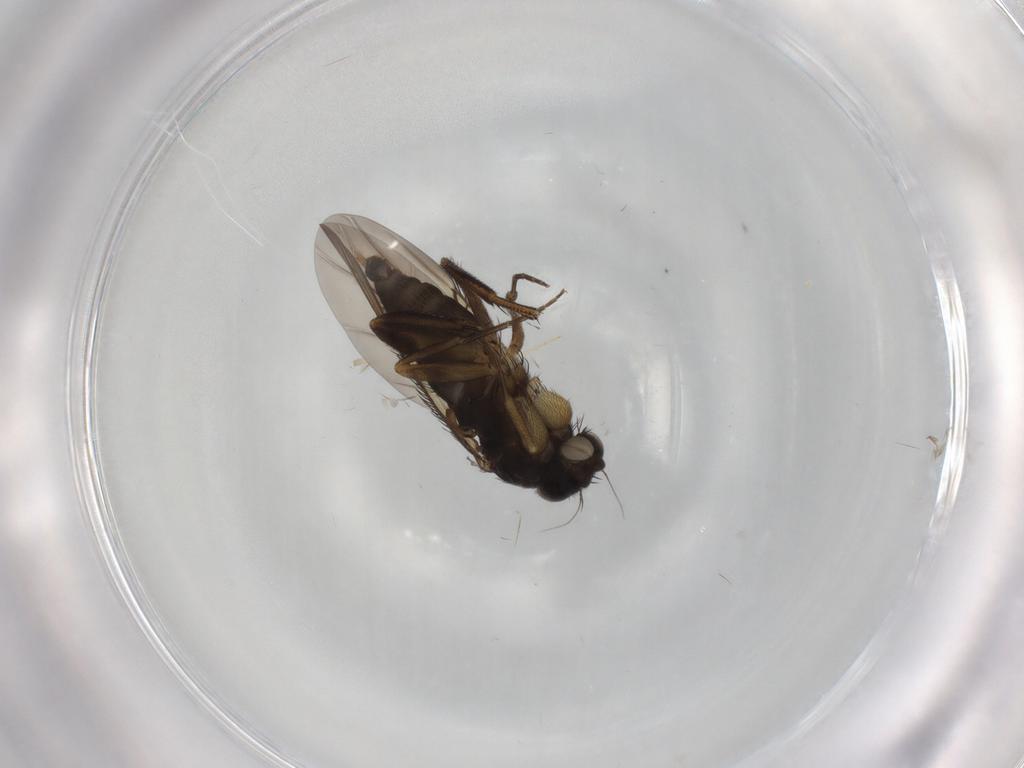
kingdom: Animalia
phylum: Arthropoda
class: Insecta
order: Diptera
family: Phoridae
